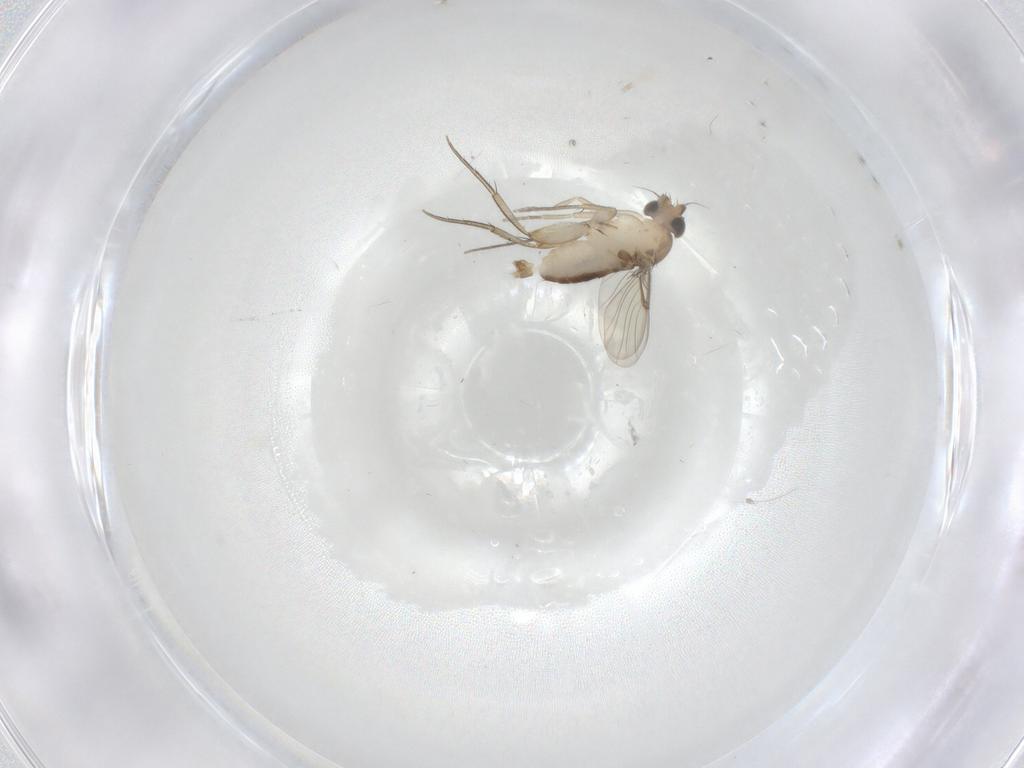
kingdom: Animalia
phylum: Arthropoda
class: Insecta
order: Diptera
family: Phoridae
